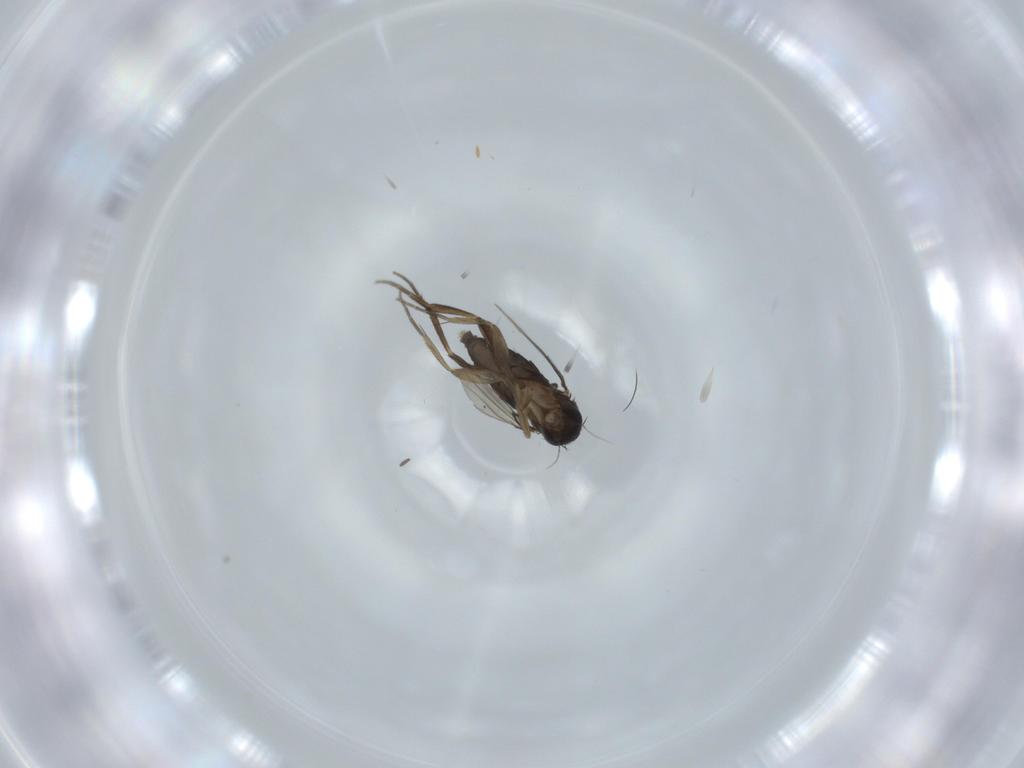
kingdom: Animalia
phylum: Arthropoda
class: Insecta
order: Diptera
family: Phoridae
